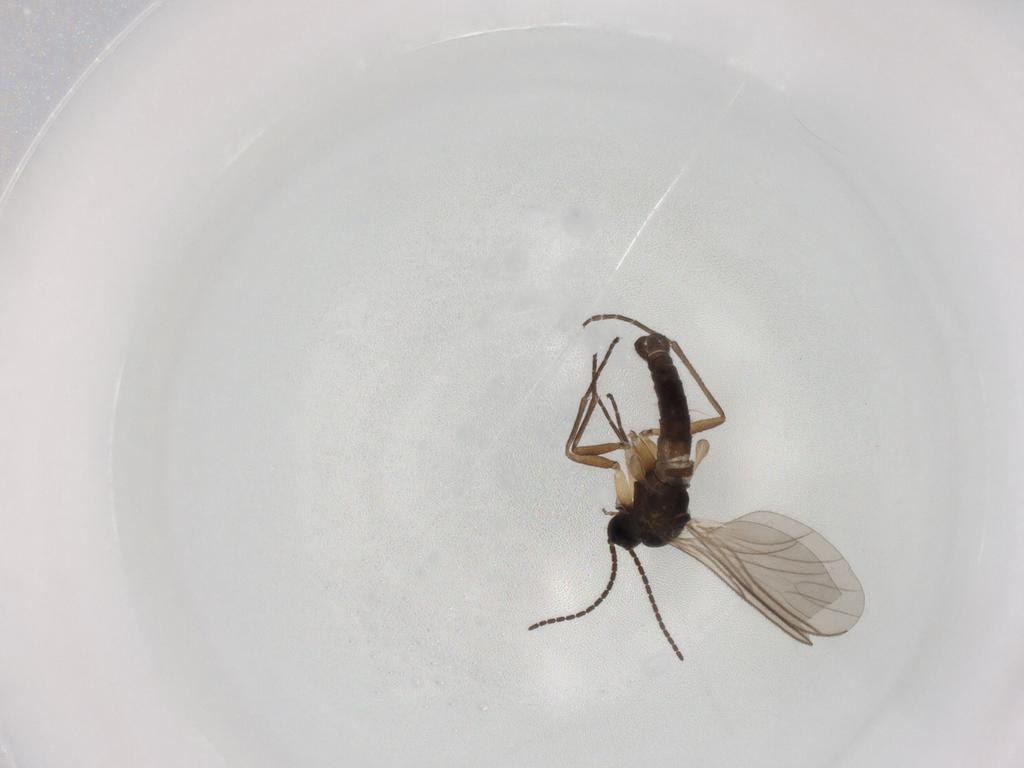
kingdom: Animalia
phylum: Arthropoda
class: Insecta
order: Diptera
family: Sciaridae
